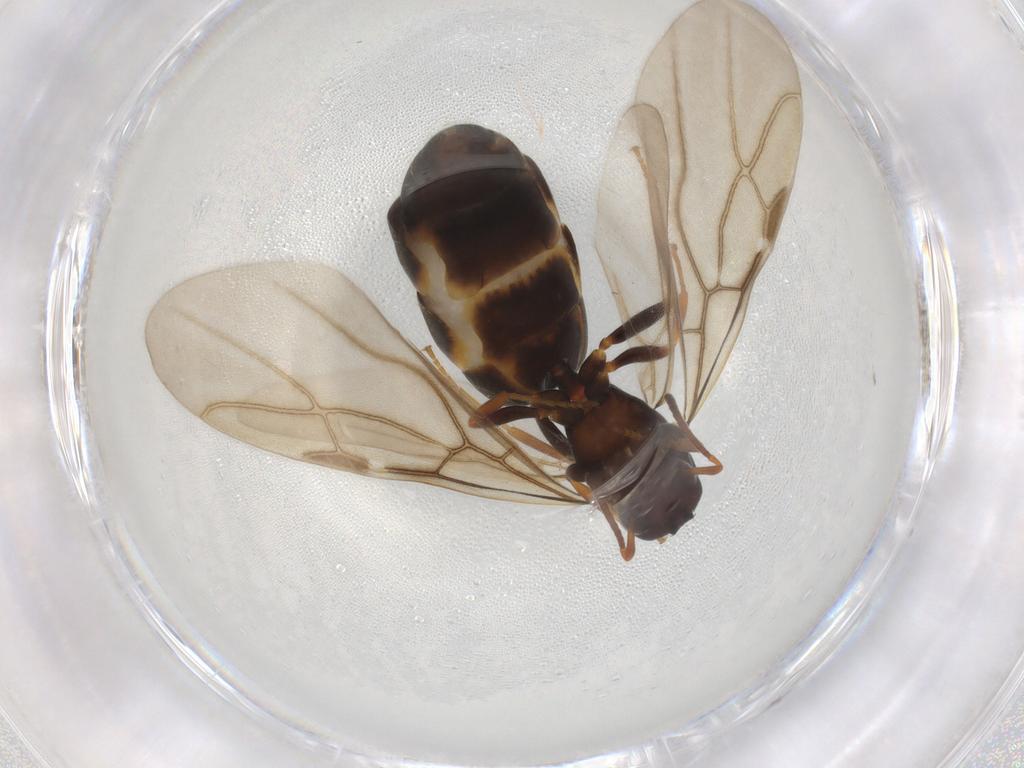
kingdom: Animalia
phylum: Arthropoda
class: Insecta
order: Hymenoptera
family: Formicidae
